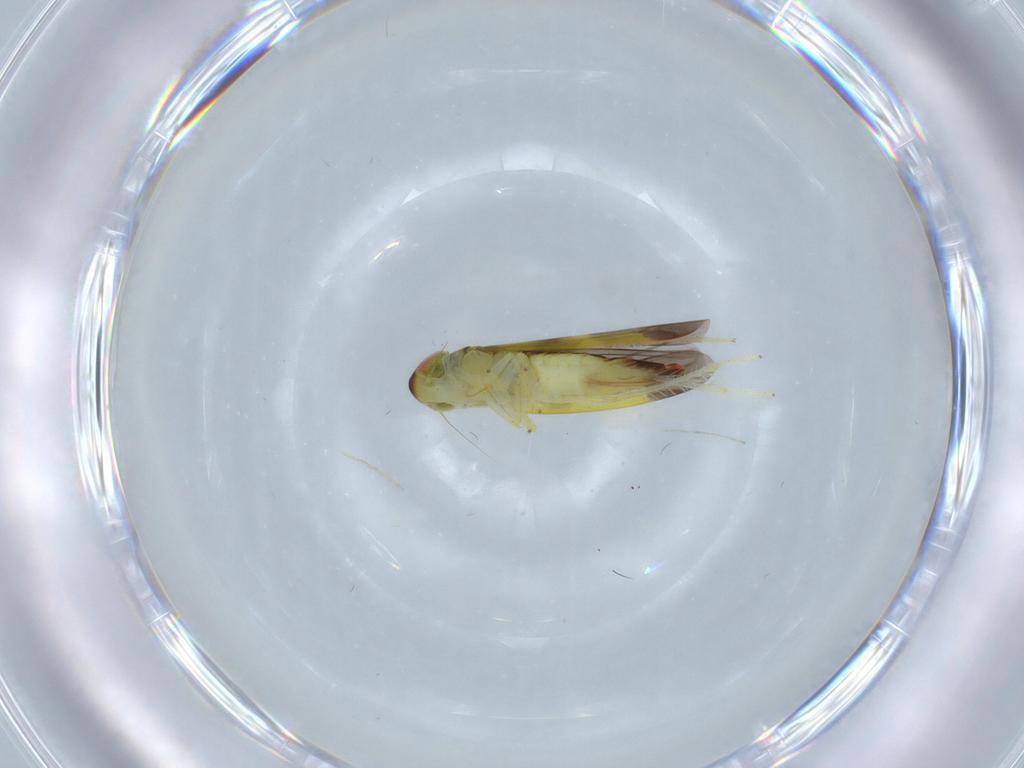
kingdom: Animalia
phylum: Arthropoda
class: Insecta
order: Hemiptera
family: Cicadellidae
